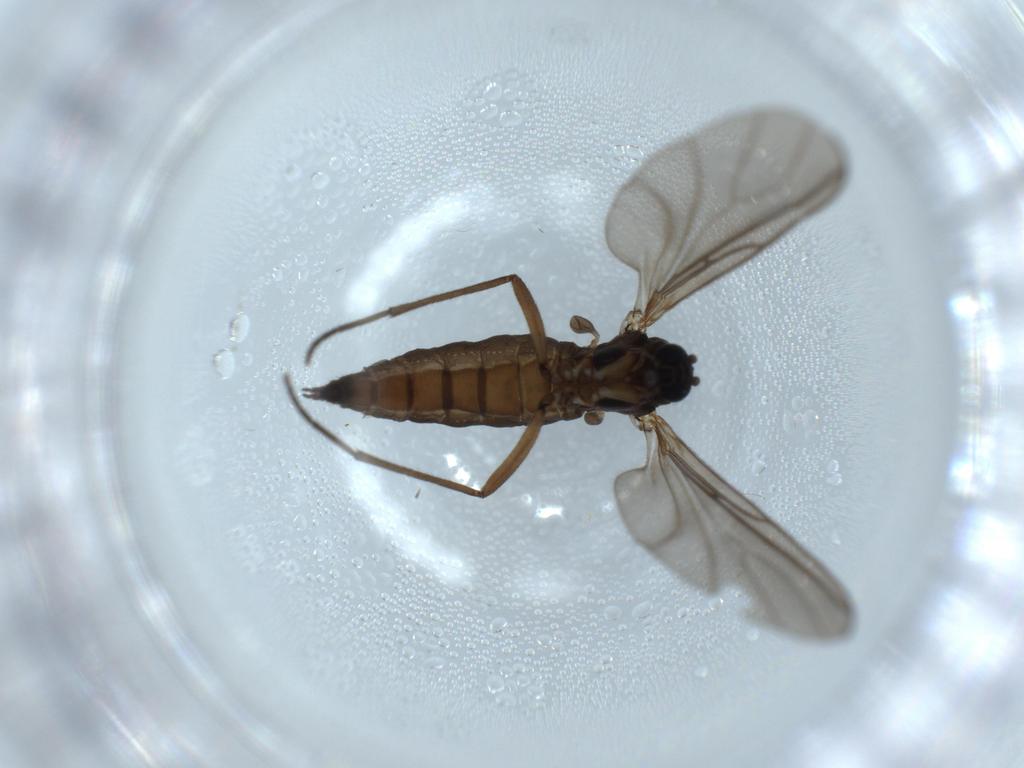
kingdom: Animalia
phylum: Arthropoda
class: Insecta
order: Diptera
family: Sciaridae
